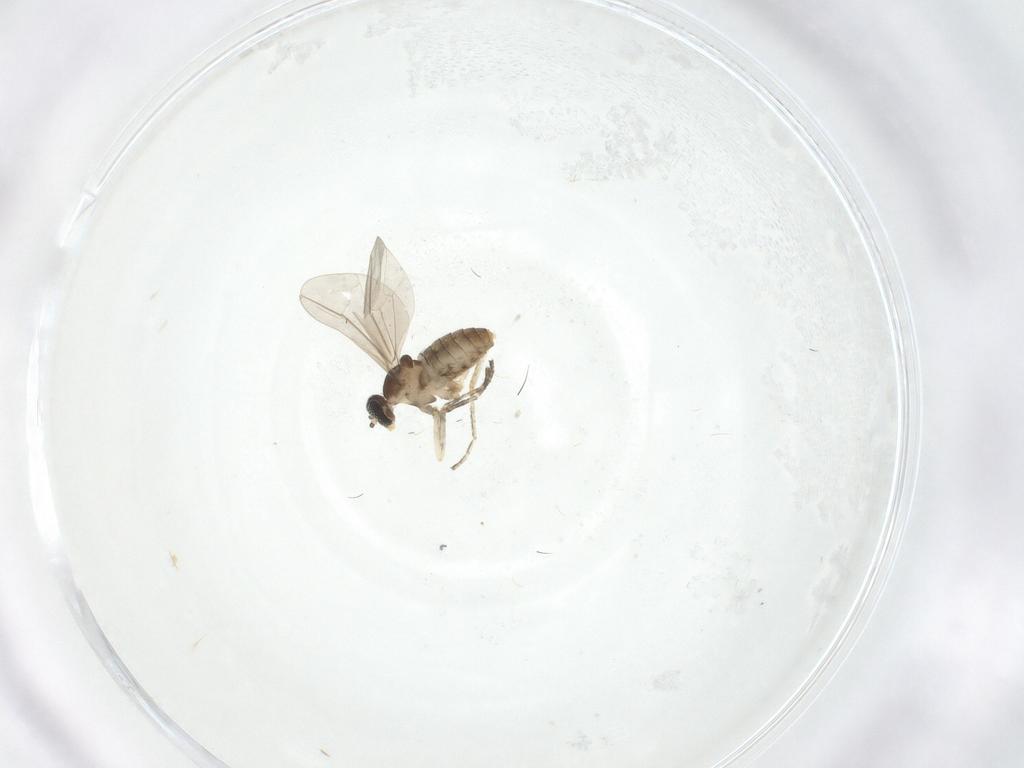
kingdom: Animalia
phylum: Arthropoda
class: Insecta
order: Diptera
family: Cecidomyiidae
